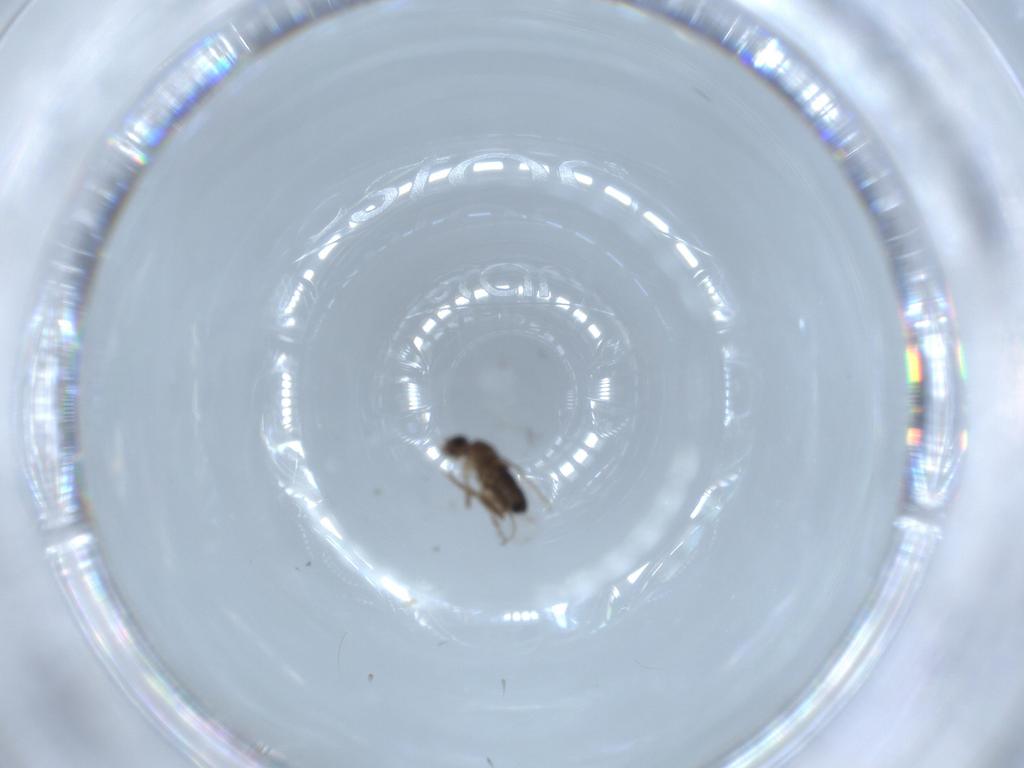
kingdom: Animalia
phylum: Arthropoda
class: Insecta
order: Diptera
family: Phoridae
